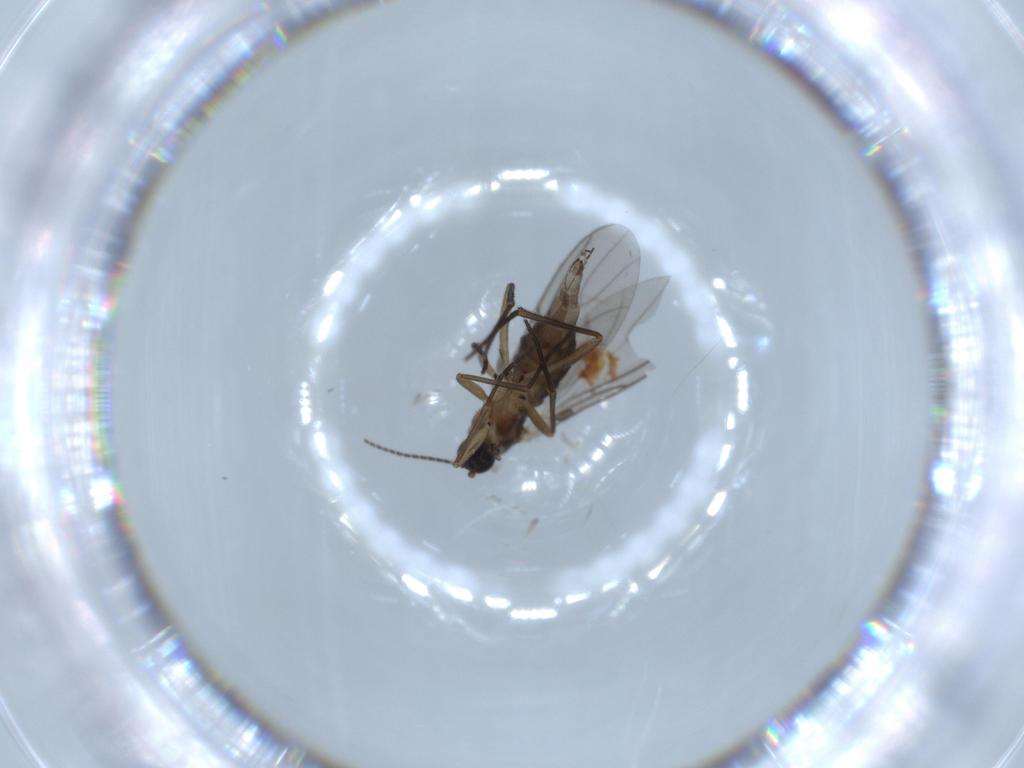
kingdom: Animalia
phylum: Arthropoda
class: Insecta
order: Diptera
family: Sciaridae
